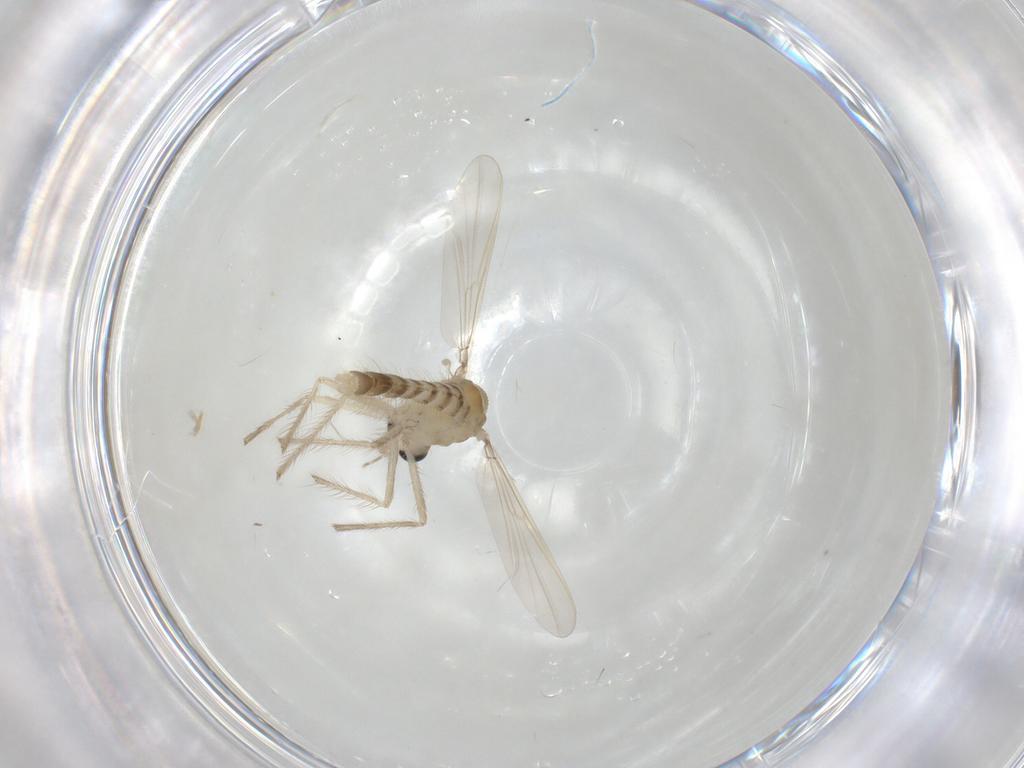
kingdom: Animalia
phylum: Arthropoda
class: Insecta
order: Diptera
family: Chironomidae
